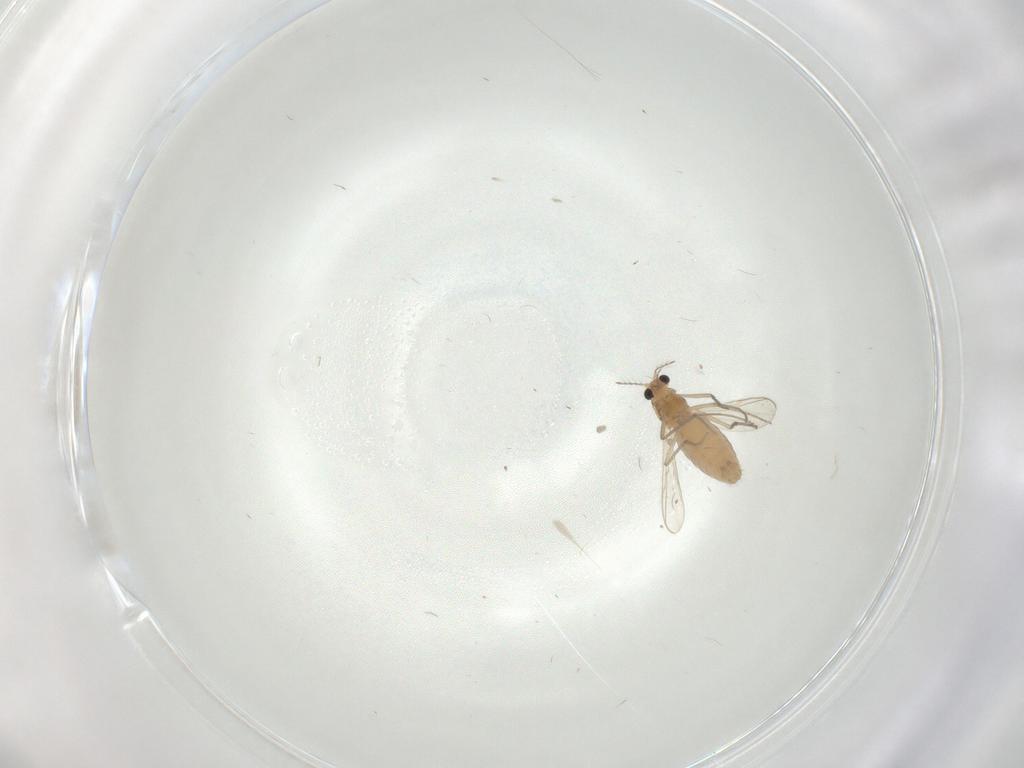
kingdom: Animalia
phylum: Arthropoda
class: Insecta
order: Diptera
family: Chironomidae
